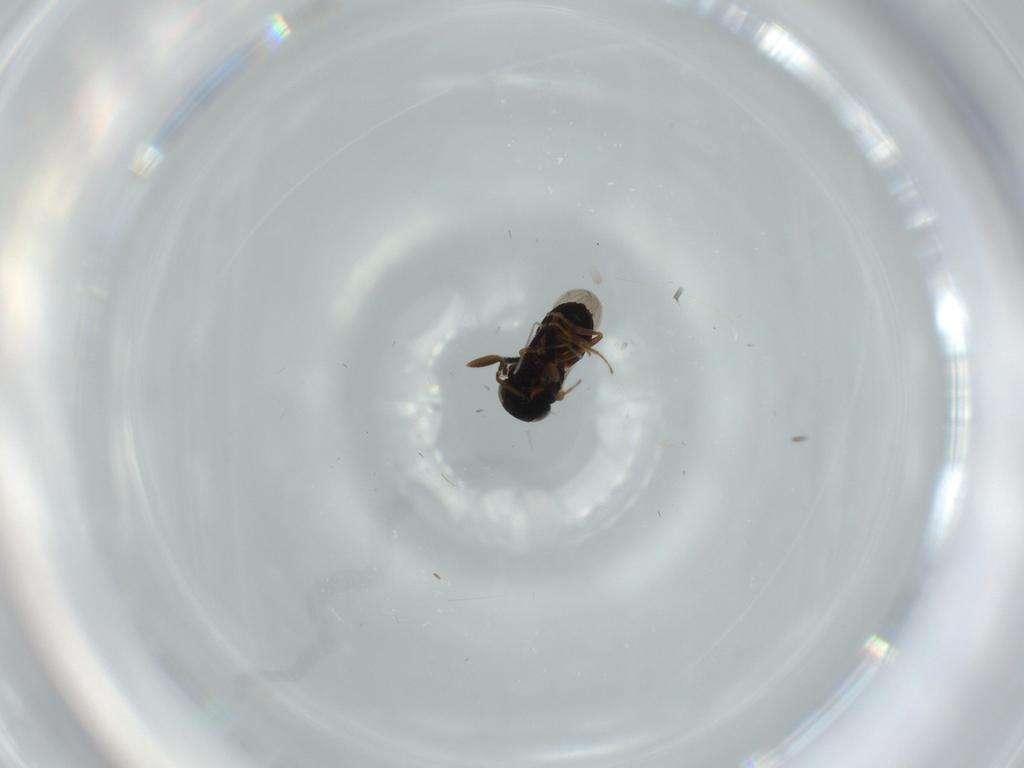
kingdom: Animalia
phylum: Arthropoda
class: Insecta
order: Coleoptera
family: Curculionidae
